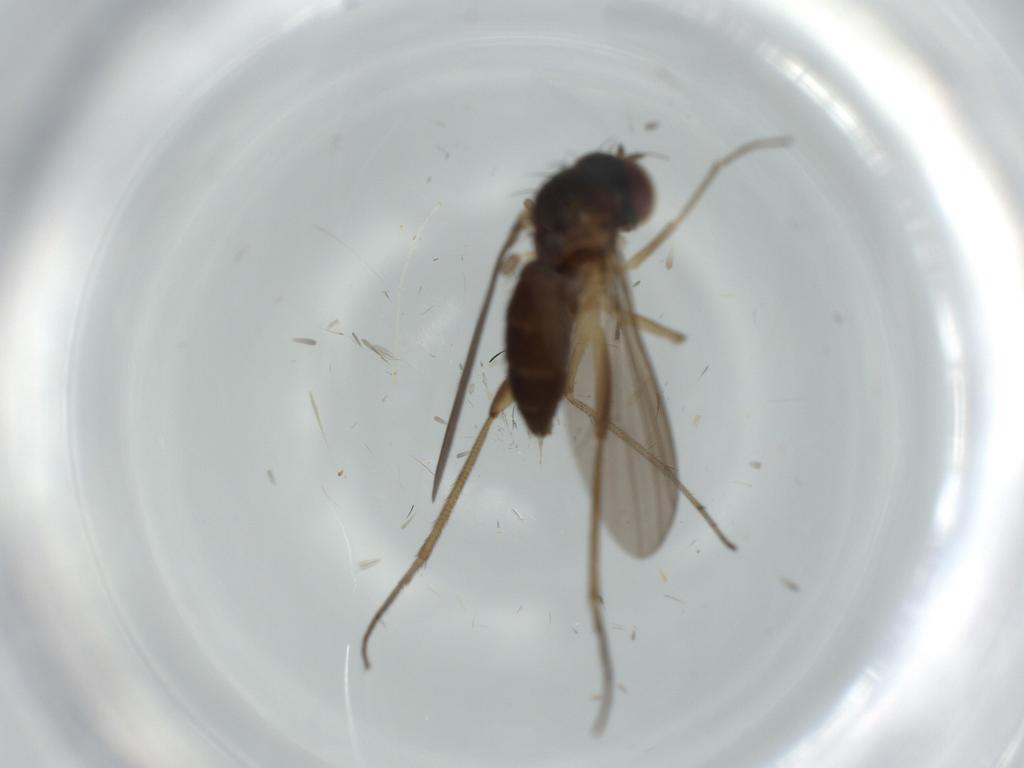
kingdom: Animalia
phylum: Arthropoda
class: Insecta
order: Diptera
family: Dolichopodidae
